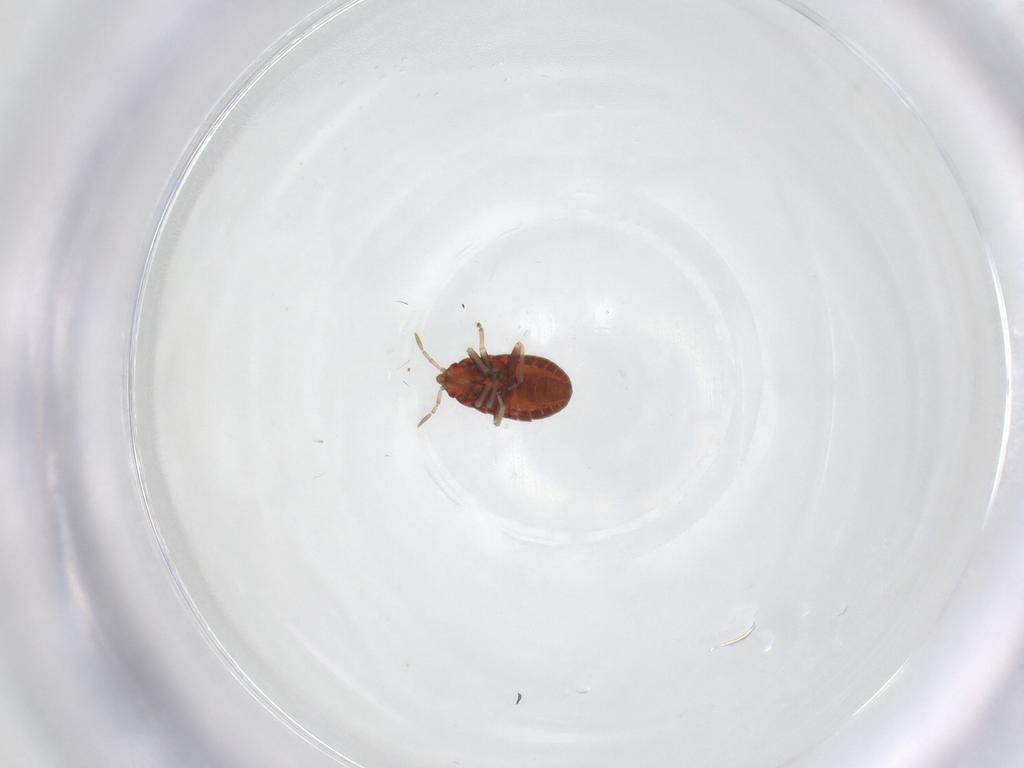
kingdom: Animalia
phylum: Arthropoda
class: Insecta
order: Hemiptera
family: Anthocoridae
